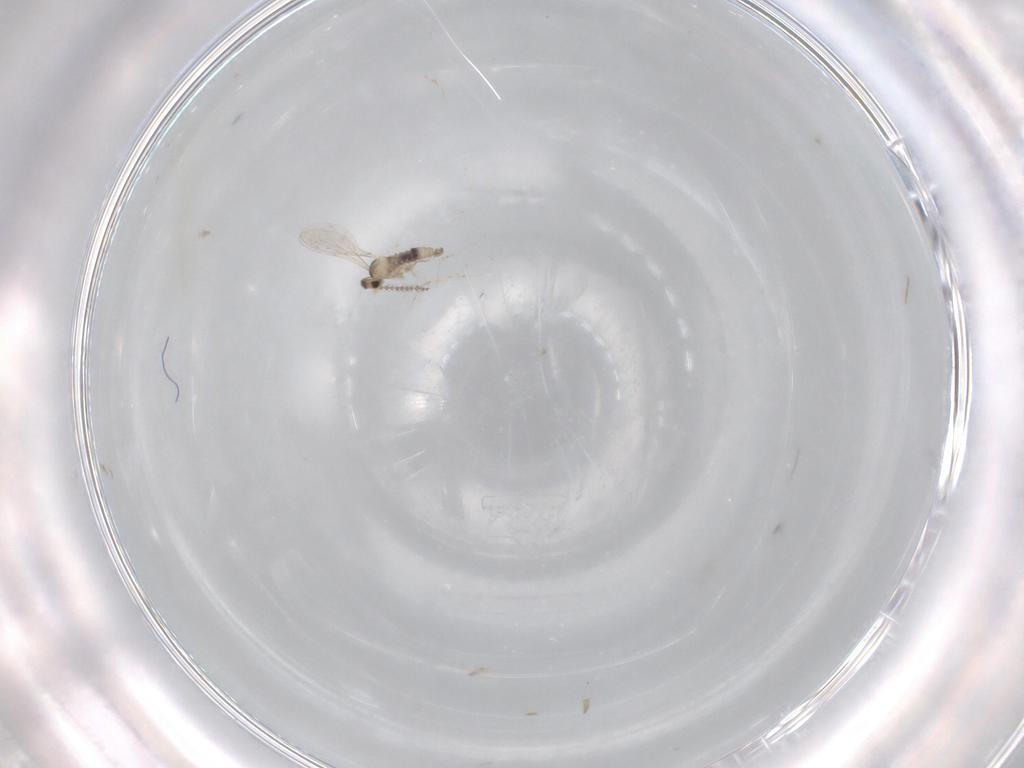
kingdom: Animalia
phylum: Arthropoda
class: Insecta
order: Diptera
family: Cecidomyiidae
